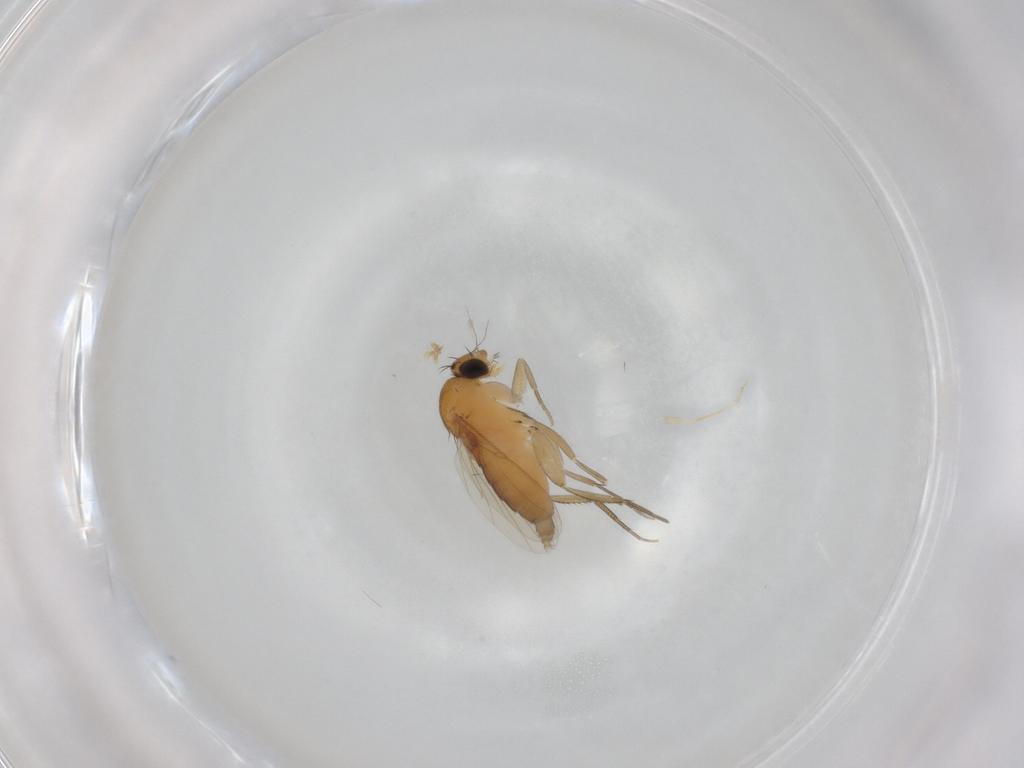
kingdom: Animalia
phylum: Arthropoda
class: Insecta
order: Diptera
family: Phoridae
